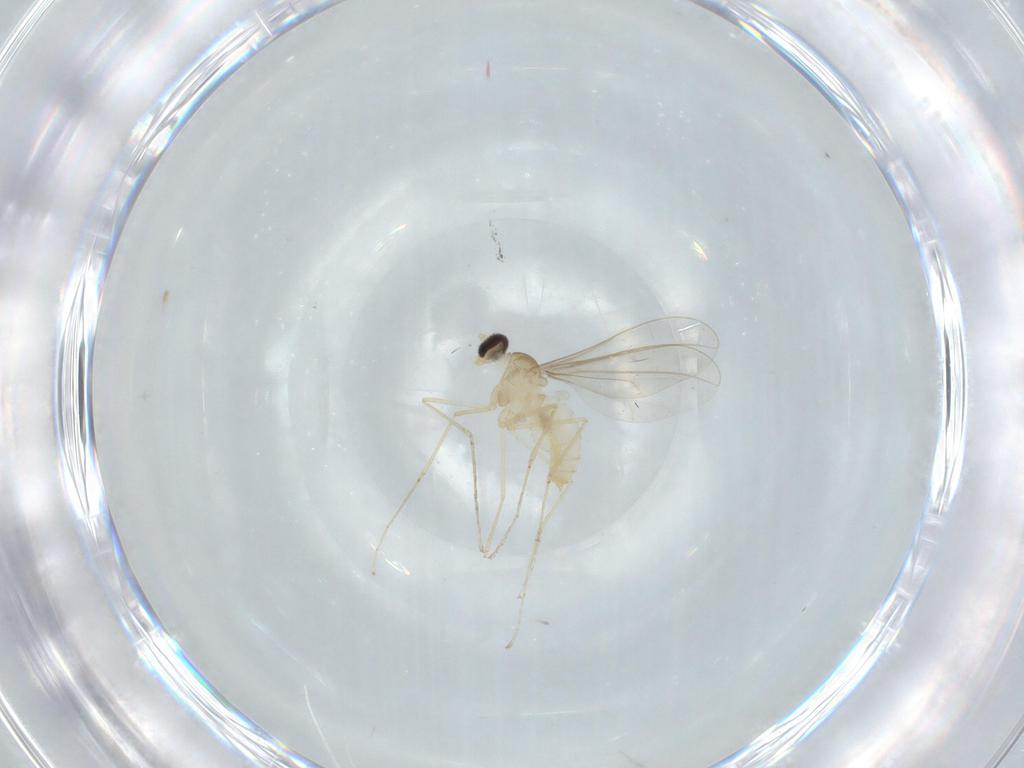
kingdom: Animalia
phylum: Arthropoda
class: Insecta
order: Diptera
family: Cecidomyiidae
